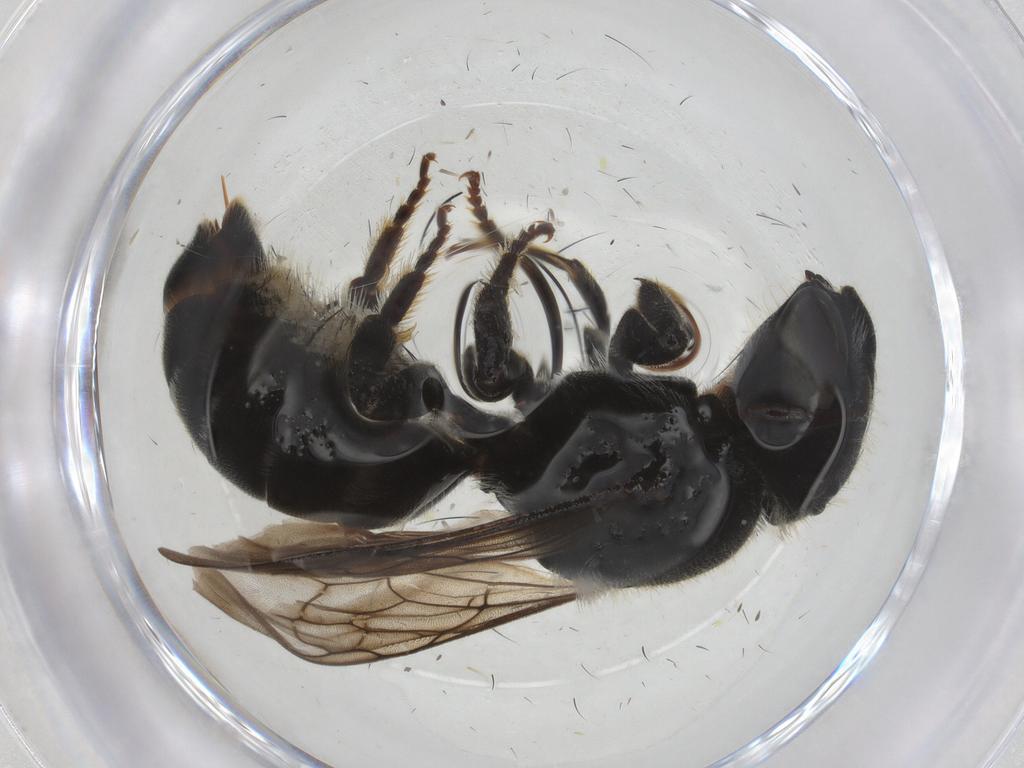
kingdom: Animalia
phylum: Arthropoda
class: Insecta
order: Hymenoptera
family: Megachilidae
